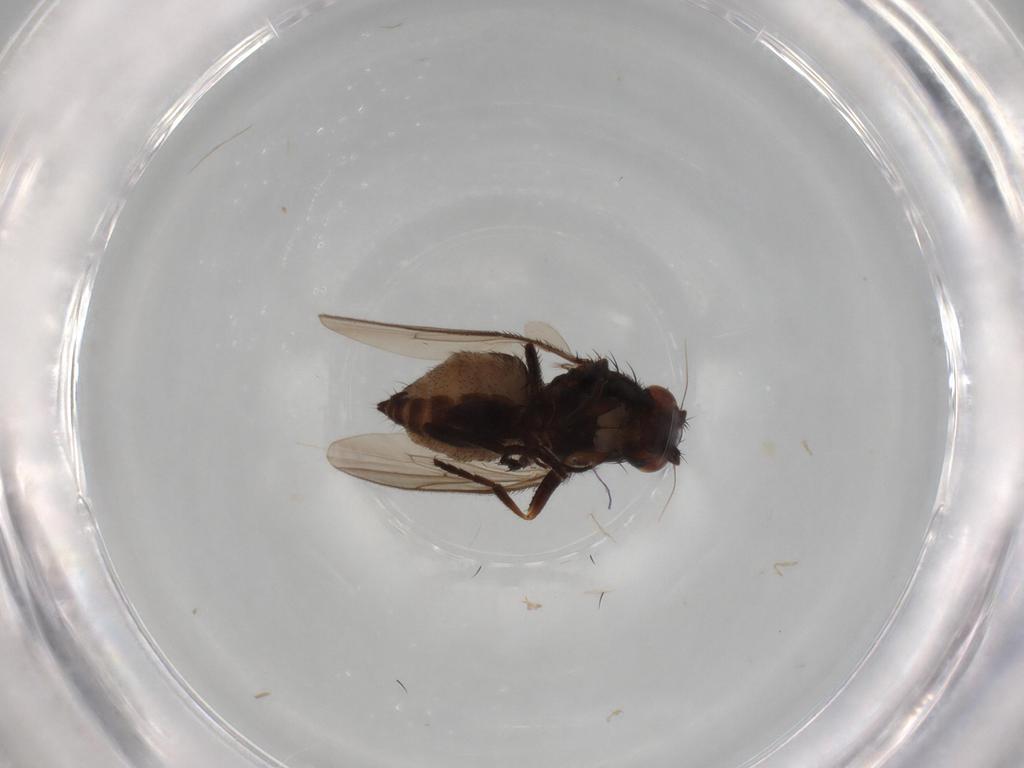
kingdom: Animalia
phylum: Arthropoda
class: Insecta
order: Diptera
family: Sphaeroceridae
